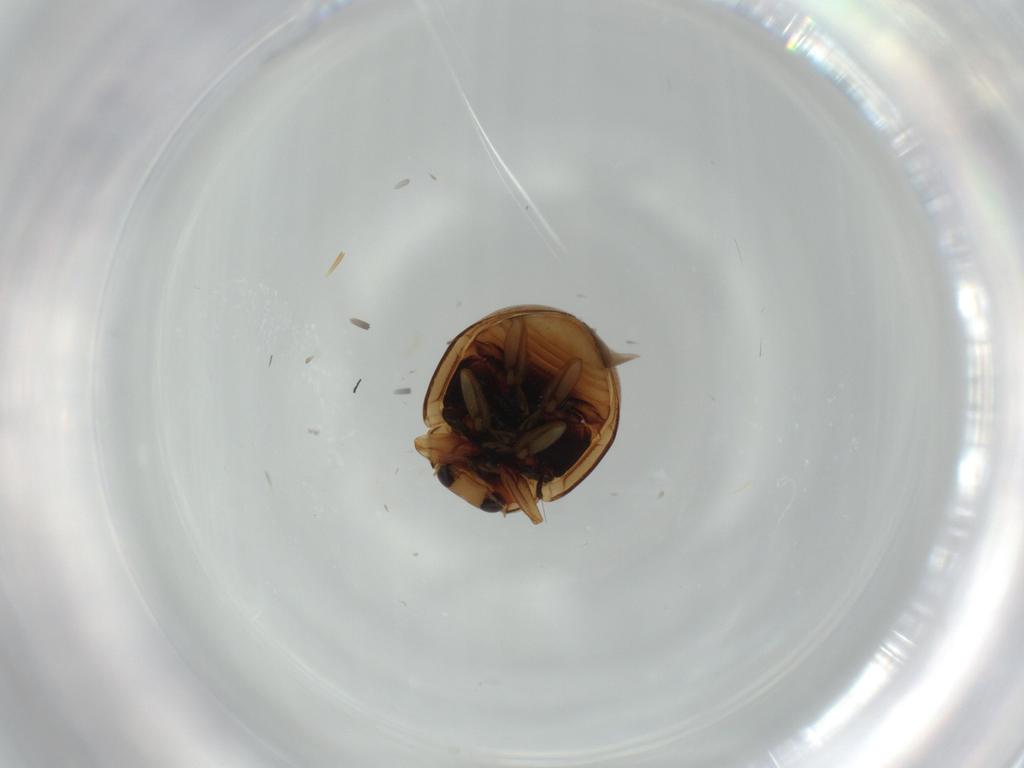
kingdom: Animalia
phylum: Arthropoda
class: Insecta
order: Coleoptera
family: Coccinellidae
